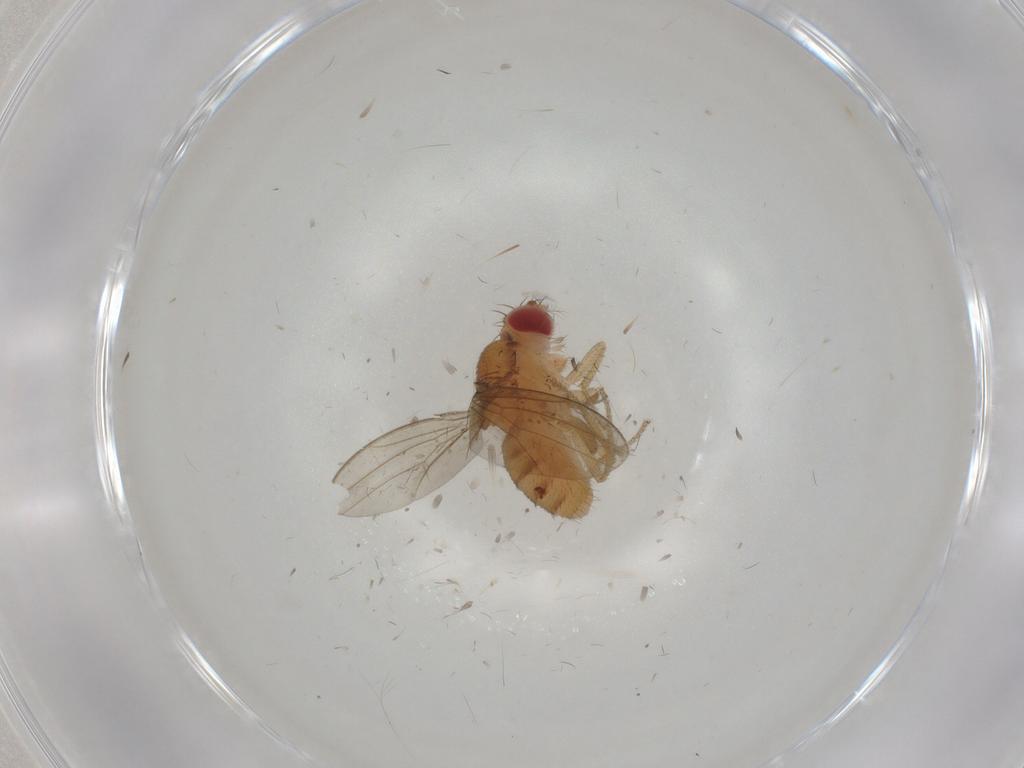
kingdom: Animalia
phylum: Arthropoda
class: Insecta
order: Diptera
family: Drosophilidae
